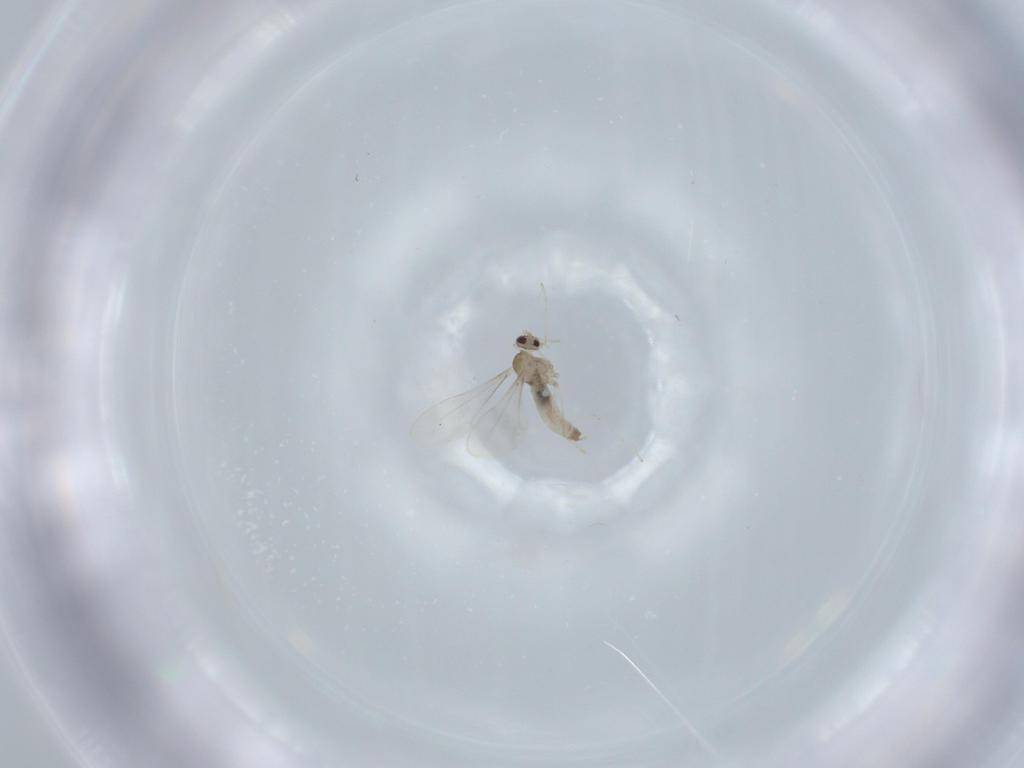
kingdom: Animalia
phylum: Arthropoda
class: Insecta
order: Diptera
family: Cecidomyiidae
